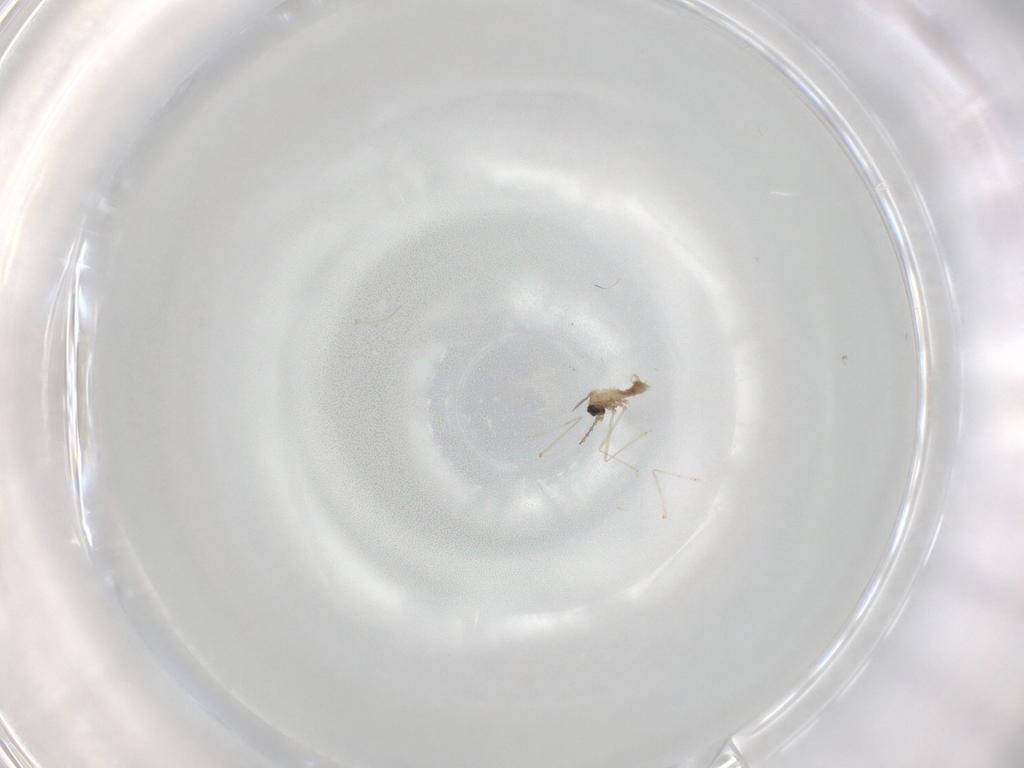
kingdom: Animalia
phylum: Arthropoda
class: Insecta
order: Diptera
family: Cecidomyiidae
